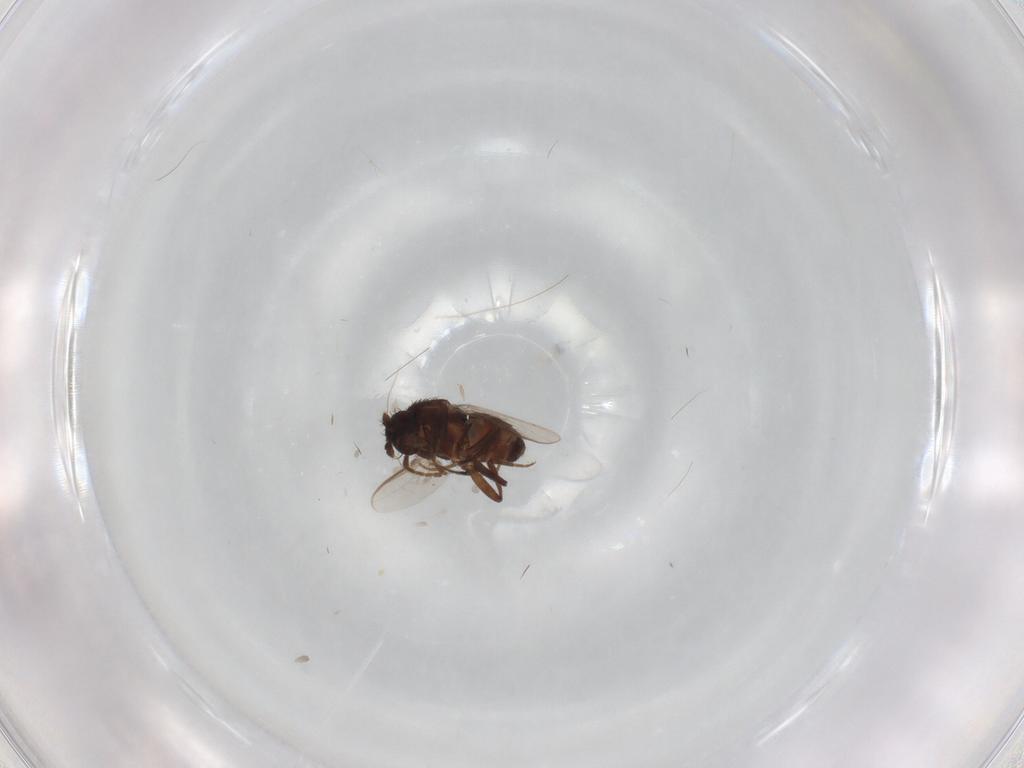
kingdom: Animalia
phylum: Arthropoda
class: Insecta
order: Diptera
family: Sphaeroceridae
